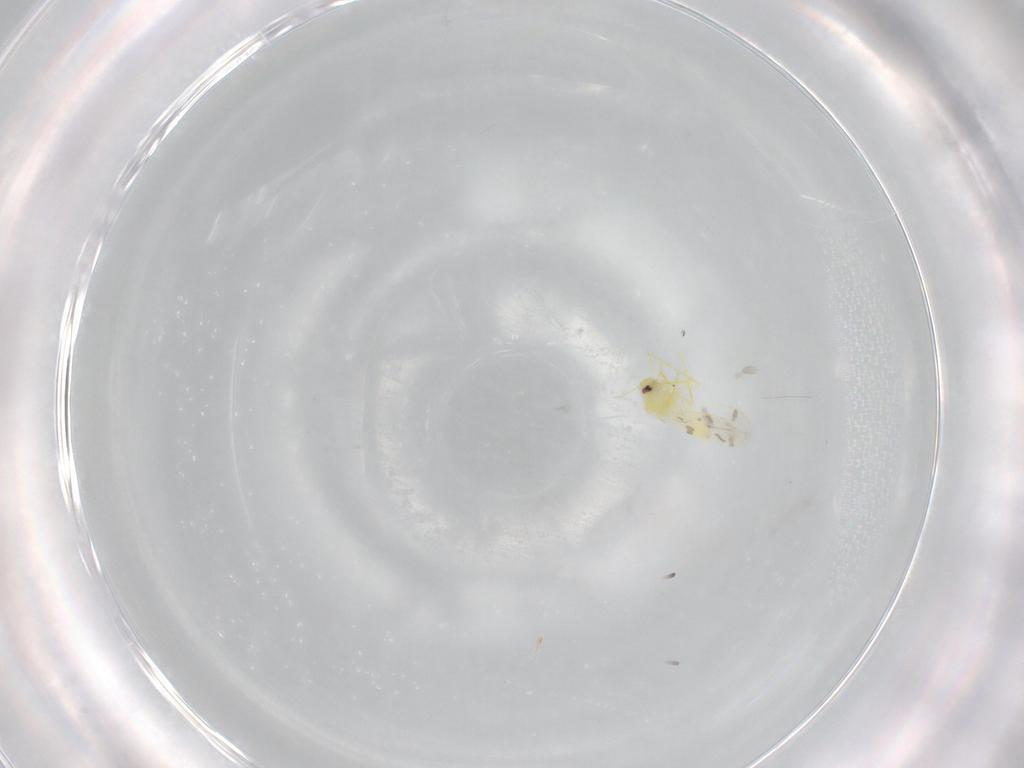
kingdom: Animalia
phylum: Arthropoda
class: Insecta
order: Hemiptera
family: Aleyrodidae
